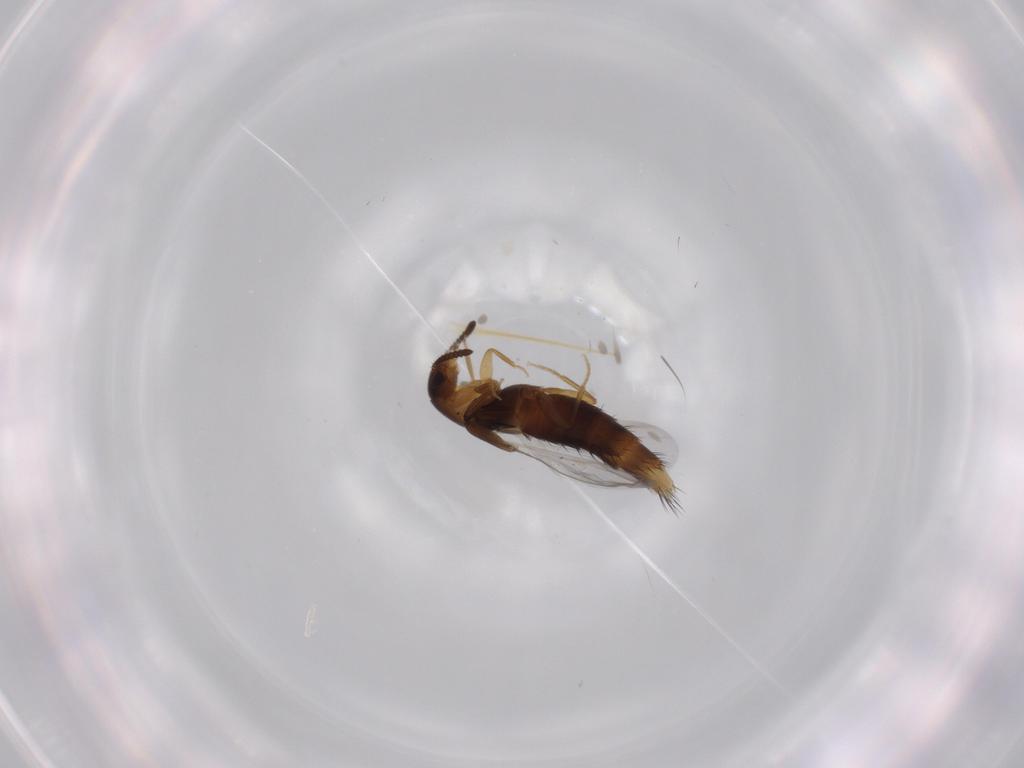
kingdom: Animalia
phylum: Arthropoda
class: Insecta
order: Coleoptera
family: Staphylinidae
